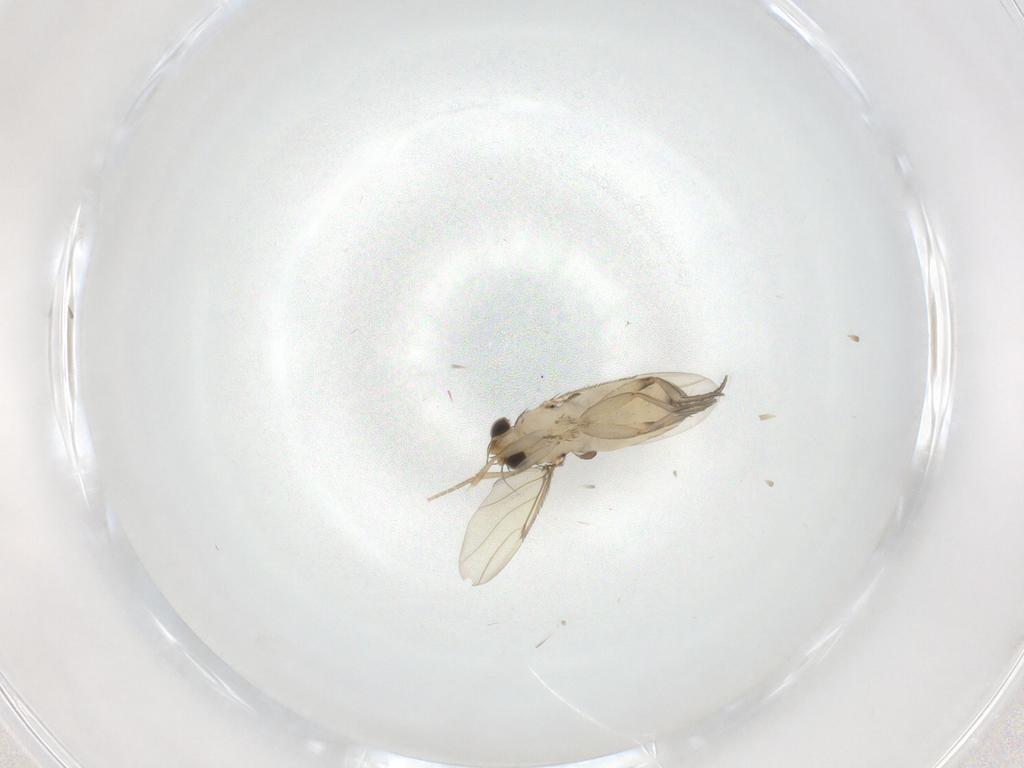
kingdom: Animalia
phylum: Arthropoda
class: Insecta
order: Diptera
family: Phoridae
